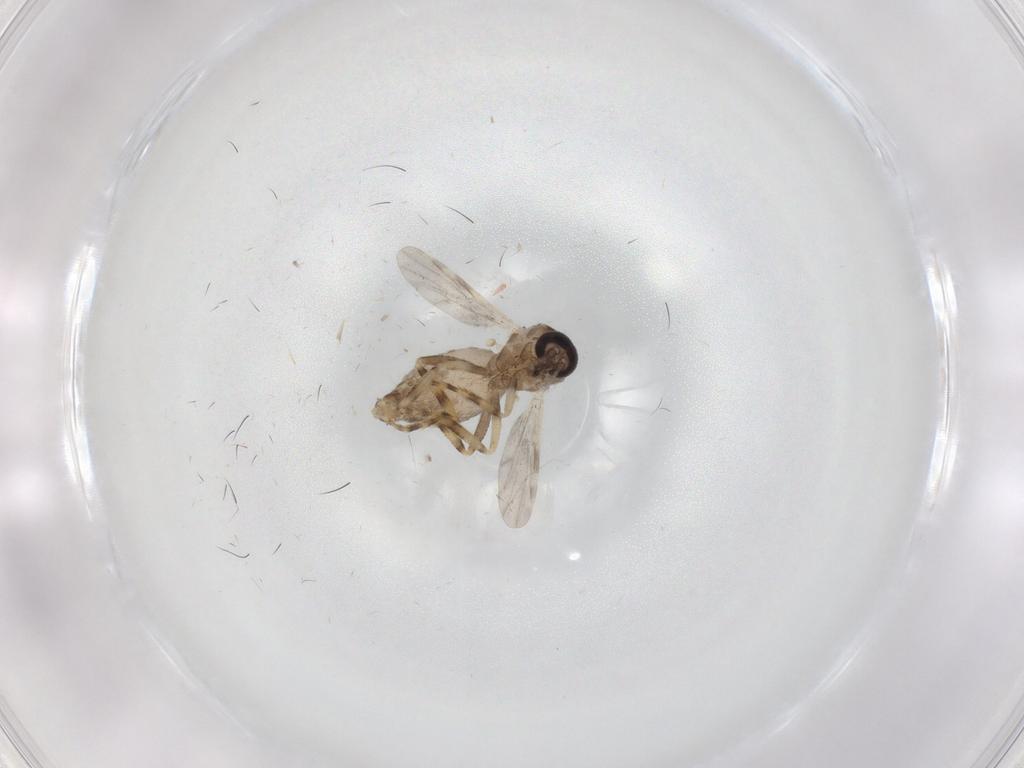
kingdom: Animalia
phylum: Arthropoda
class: Insecta
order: Diptera
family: Ceratopogonidae
